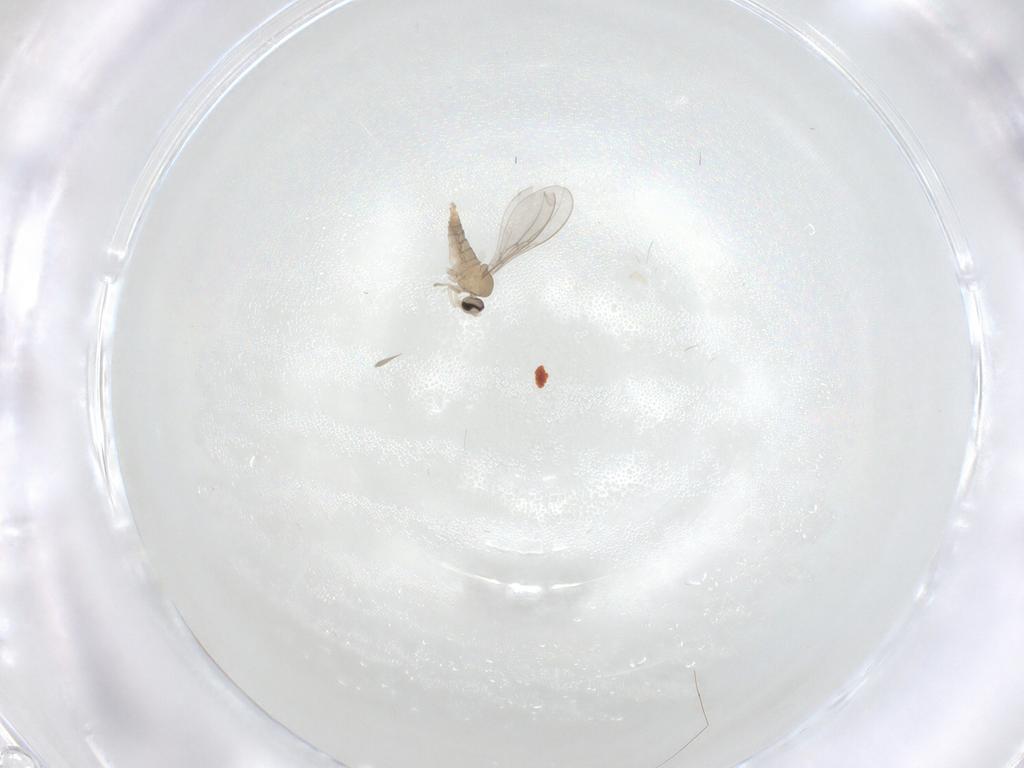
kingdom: Animalia
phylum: Arthropoda
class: Insecta
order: Diptera
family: Cecidomyiidae
